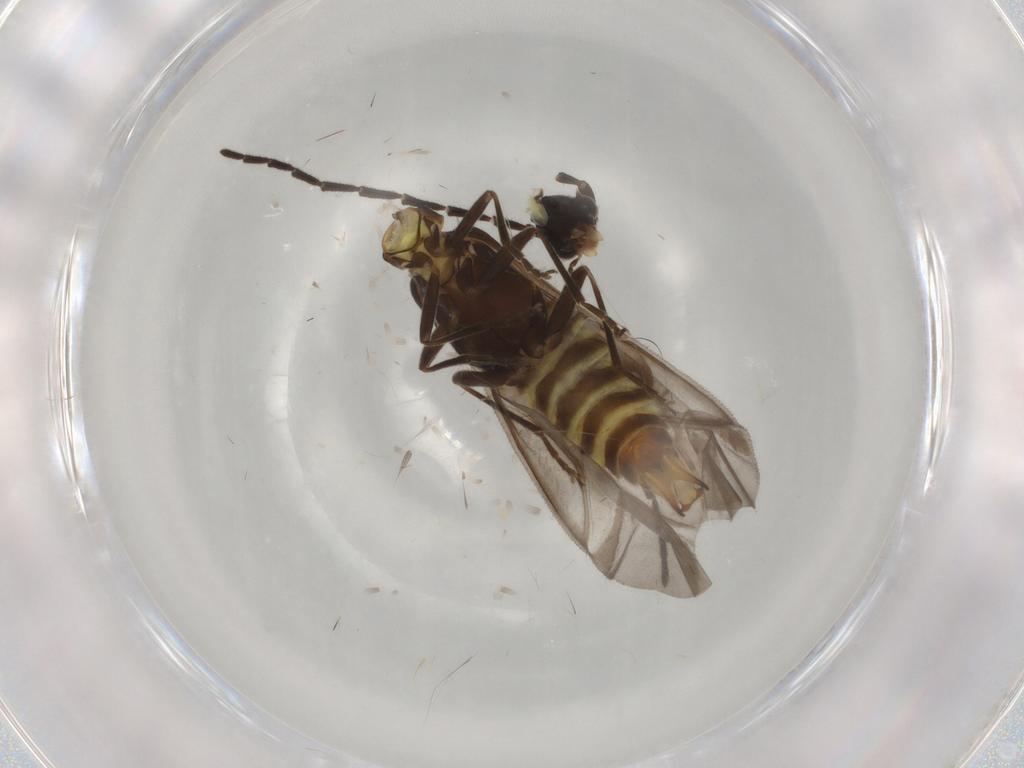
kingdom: Animalia
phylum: Arthropoda
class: Insecta
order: Coleoptera
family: Cantharidae
